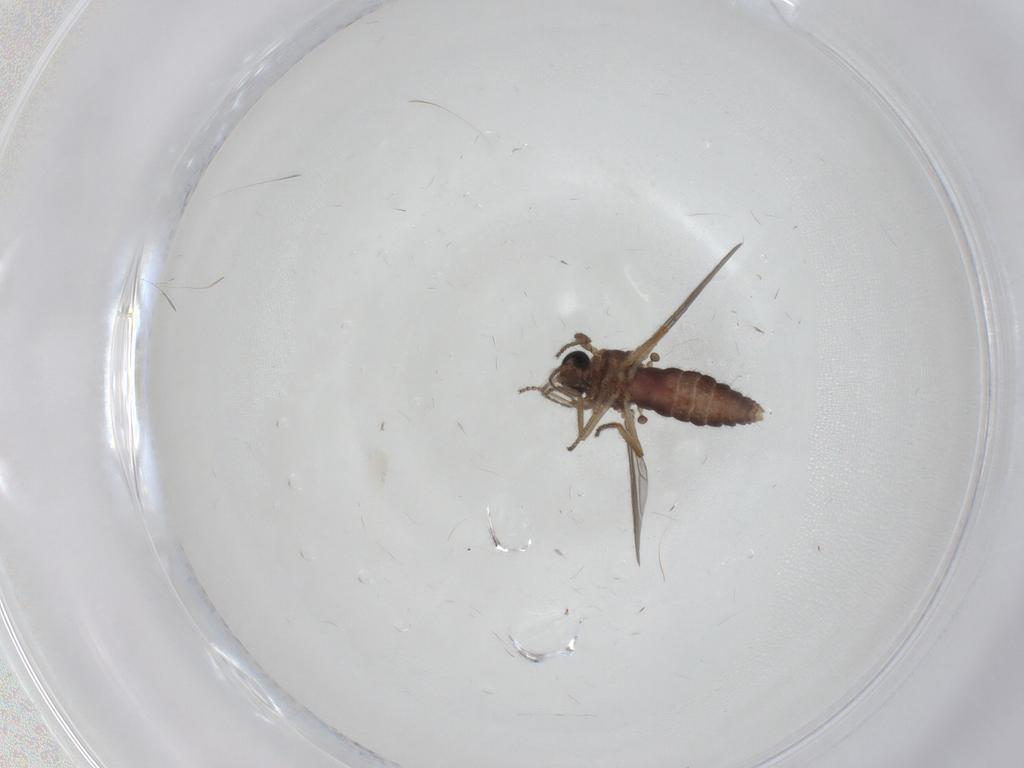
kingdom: Animalia
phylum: Arthropoda
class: Insecta
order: Diptera
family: Ceratopogonidae
